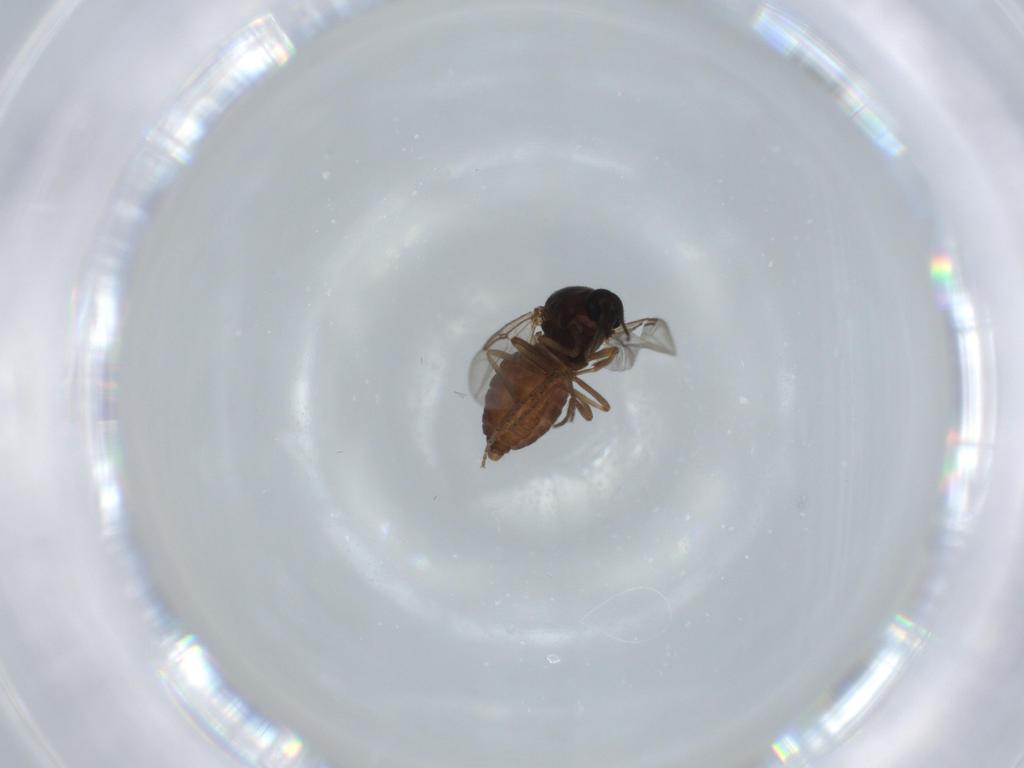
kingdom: Animalia
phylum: Arthropoda
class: Insecta
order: Diptera
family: Ceratopogonidae
